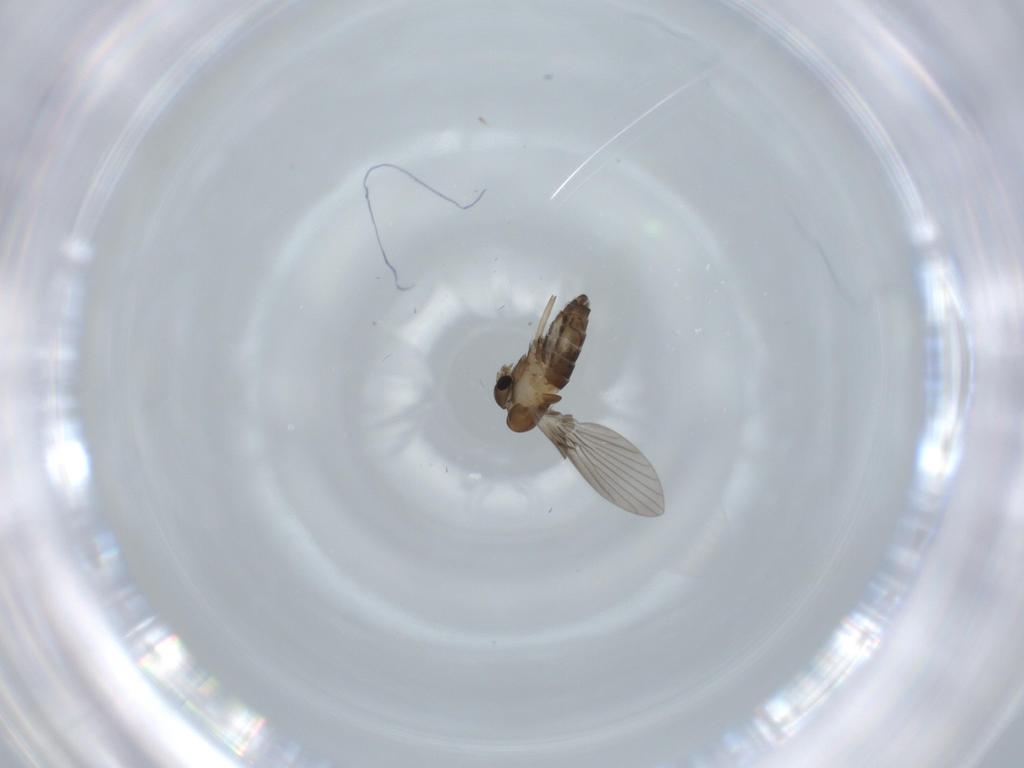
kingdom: Animalia
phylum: Arthropoda
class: Insecta
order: Diptera
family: Psychodidae
